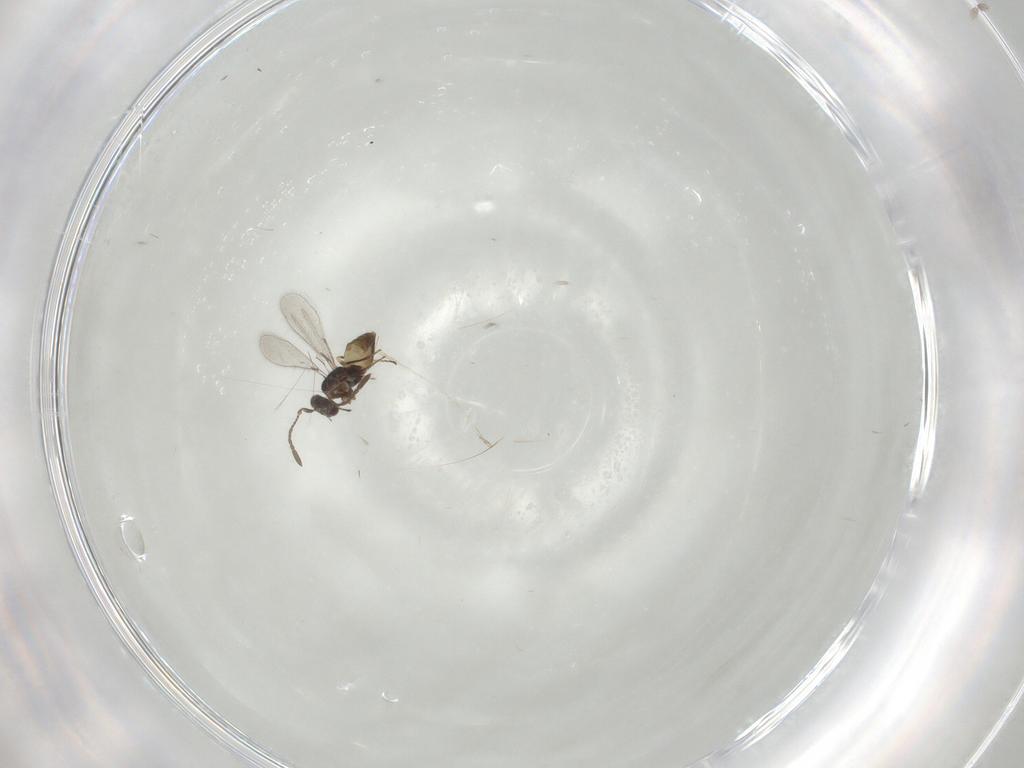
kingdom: Animalia
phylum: Arthropoda
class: Insecta
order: Hymenoptera
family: Mymaridae
